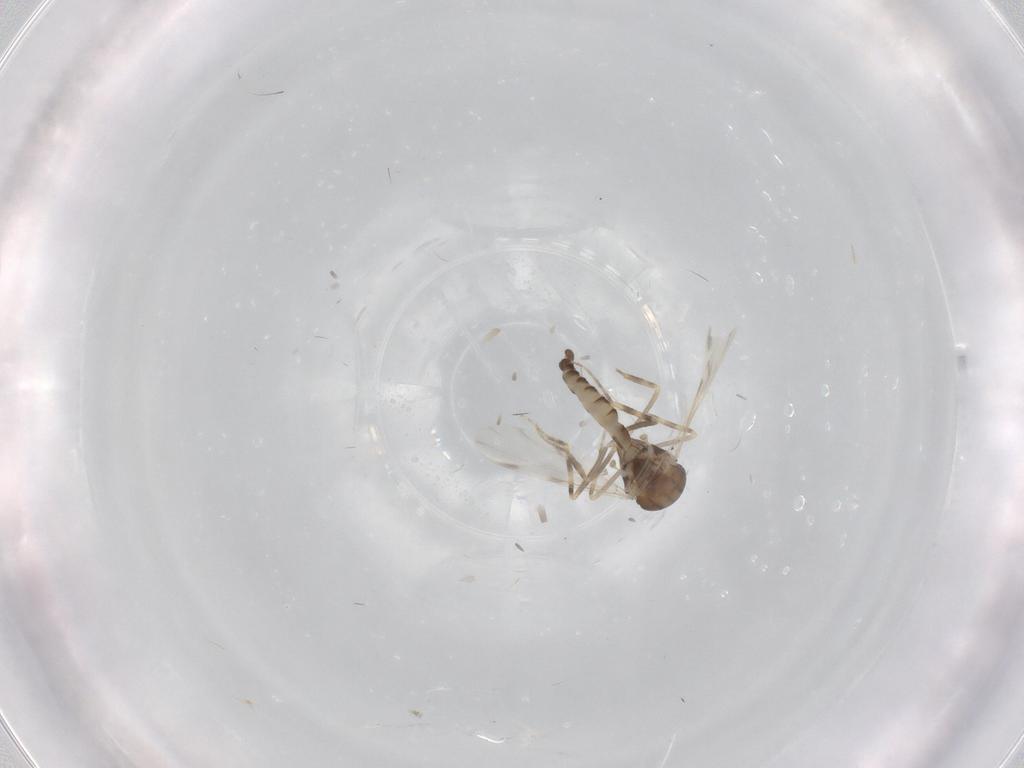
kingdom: Animalia
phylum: Arthropoda
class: Insecta
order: Diptera
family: Ceratopogonidae
